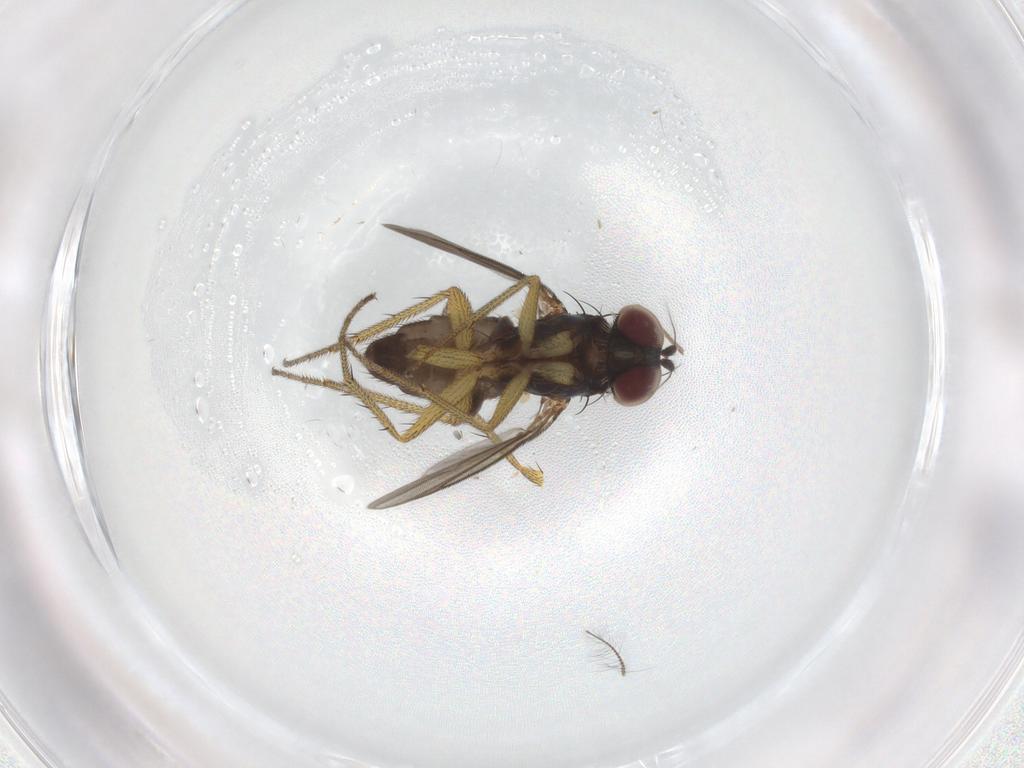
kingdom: Animalia
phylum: Arthropoda
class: Insecta
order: Diptera
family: Chironomidae
